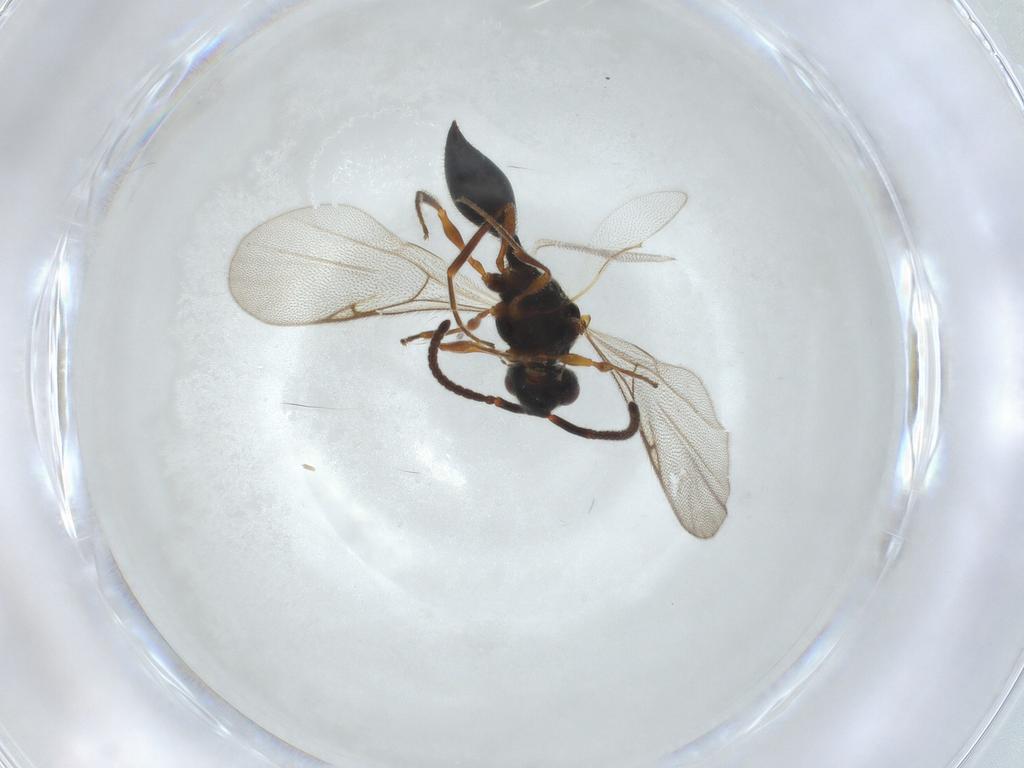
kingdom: Animalia
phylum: Arthropoda
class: Insecta
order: Hymenoptera
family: Diapriidae
